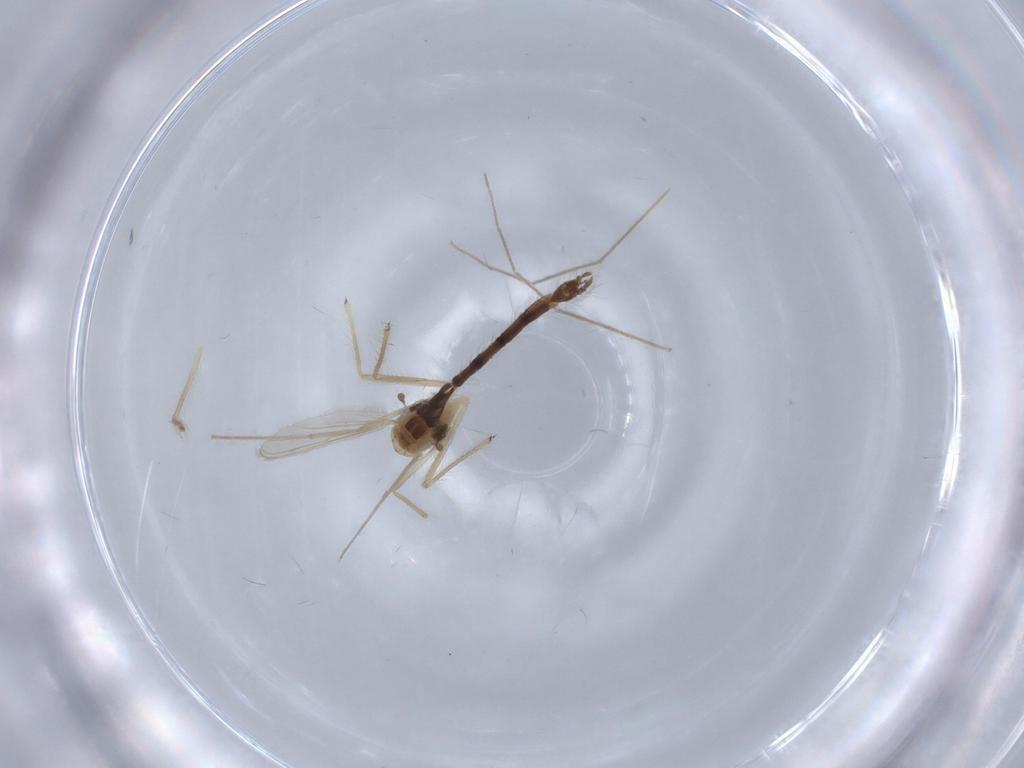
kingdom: Animalia
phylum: Arthropoda
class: Insecta
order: Diptera
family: Chironomidae
